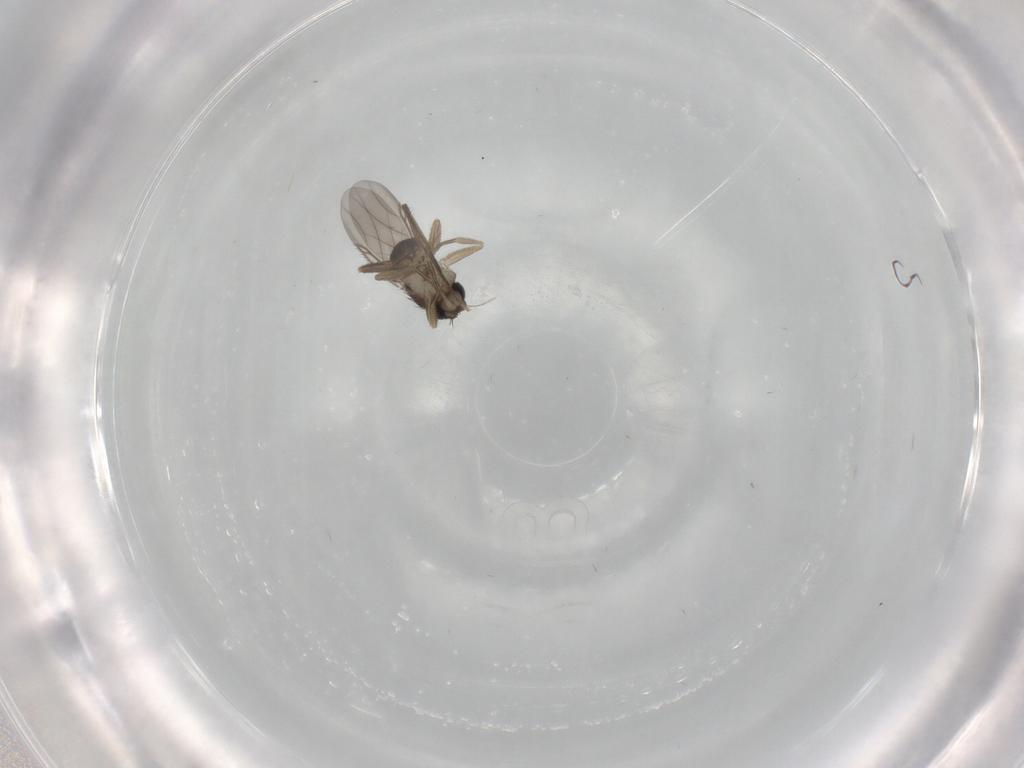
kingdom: Animalia
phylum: Arthropoda
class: Insecta
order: Diptera
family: Phoridae
